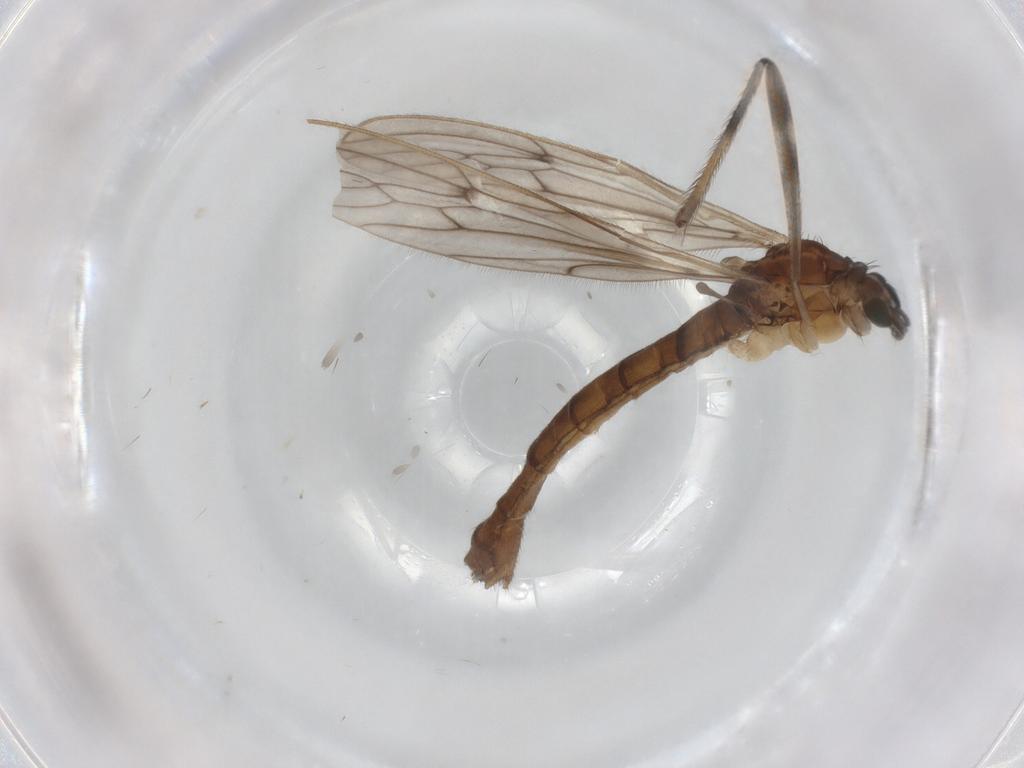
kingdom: Animalia
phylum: Arthropoda
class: Insecta
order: Diptera
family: Limoniidae
